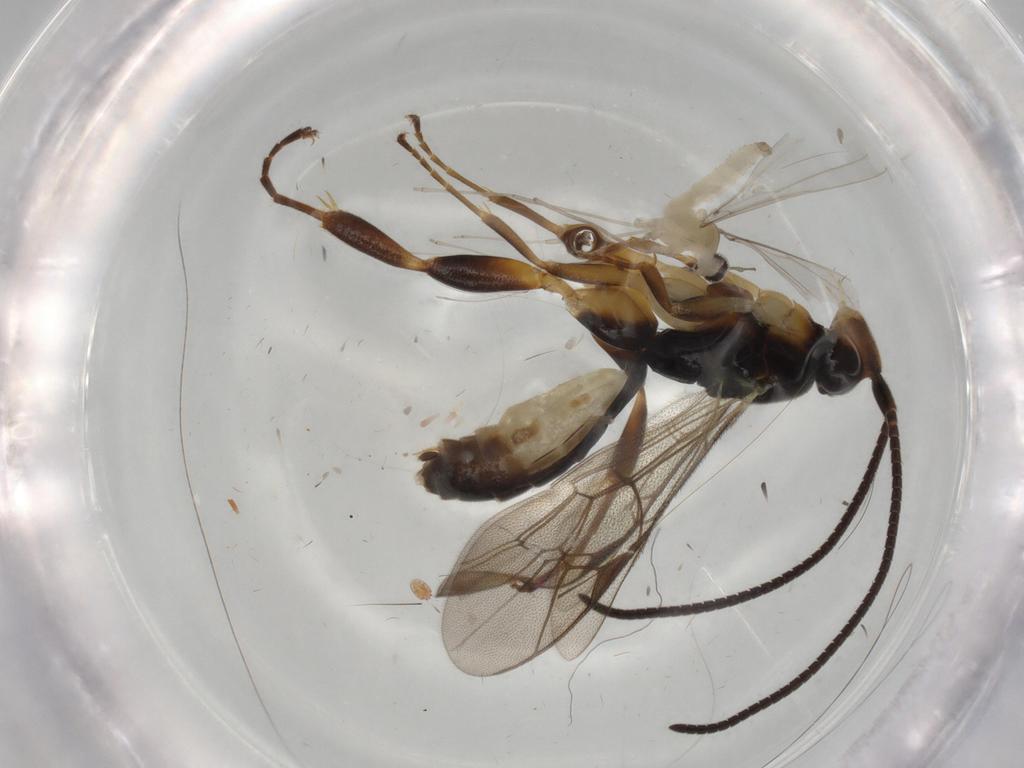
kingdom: Animalia
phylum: Arthropoda
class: Insecta
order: Diptera
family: Cecidomyiidae
